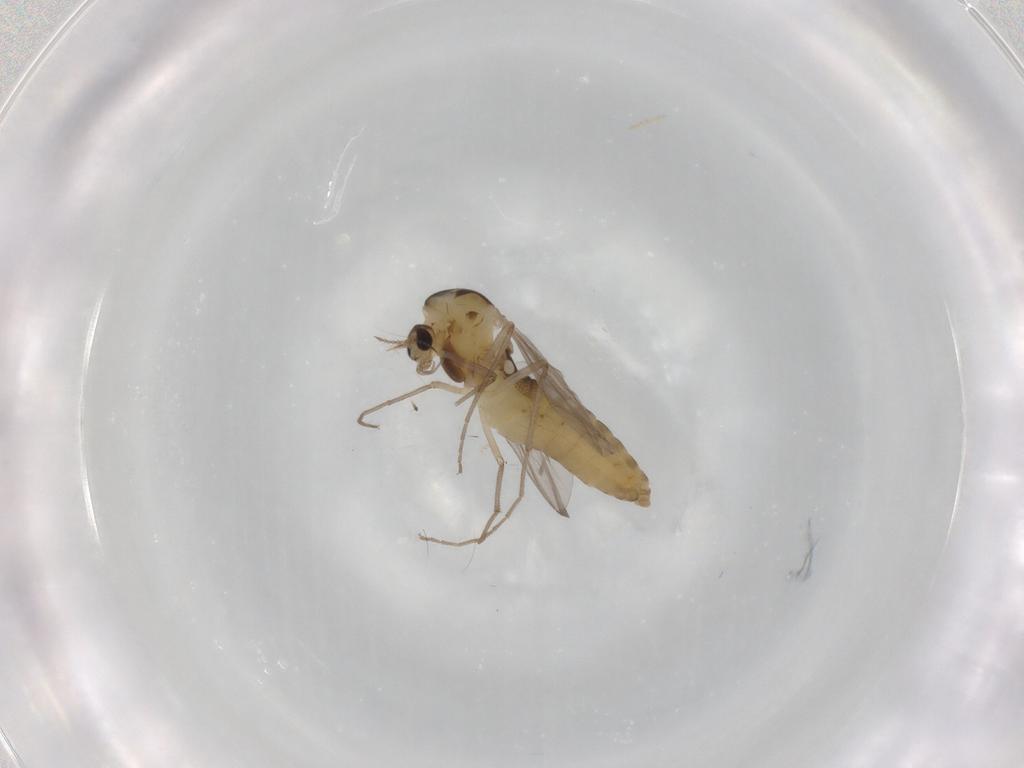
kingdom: Animalia
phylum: Arthropoda
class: Insecta
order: Diptera
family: Chironomidae
